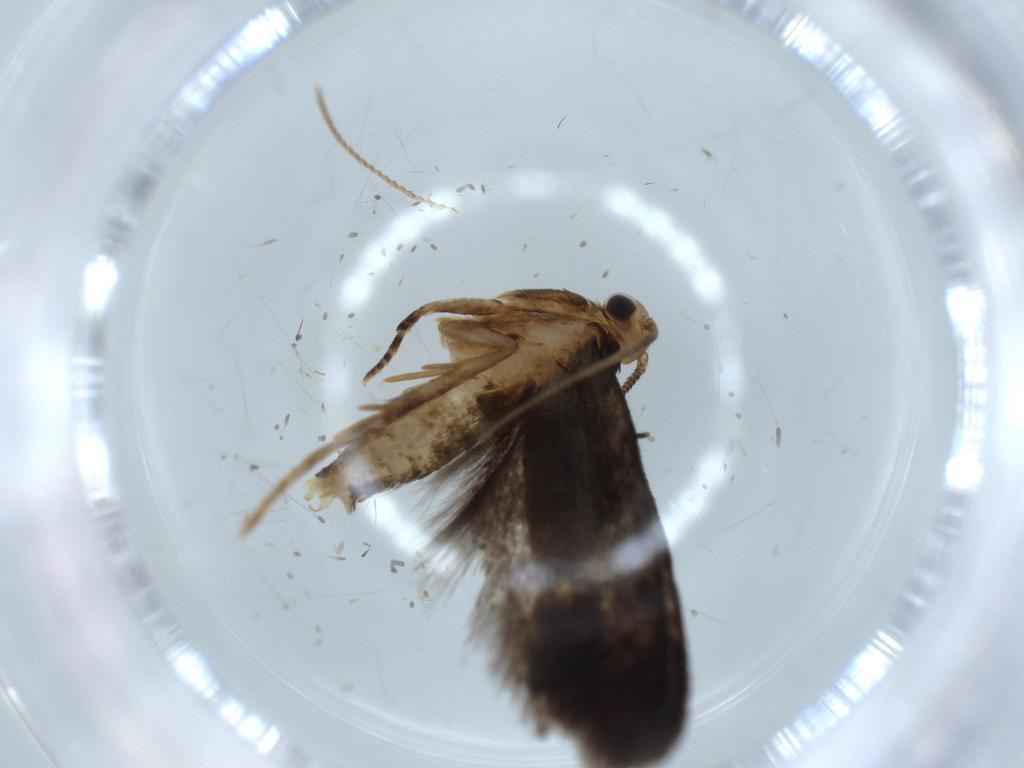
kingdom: Animalia
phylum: Arthropoda
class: Insecta
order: Lepidoptera
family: Tineidae
